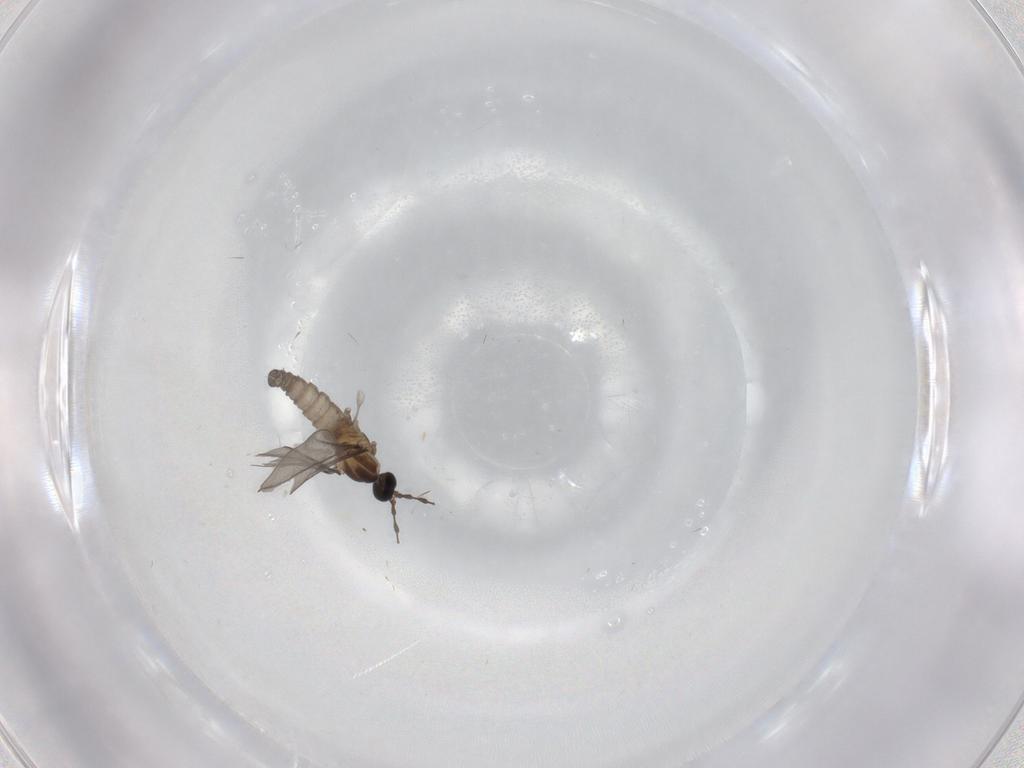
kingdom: Animalia
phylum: Arthropoda
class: Insecta
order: Diptera
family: Cecidomyiidae
